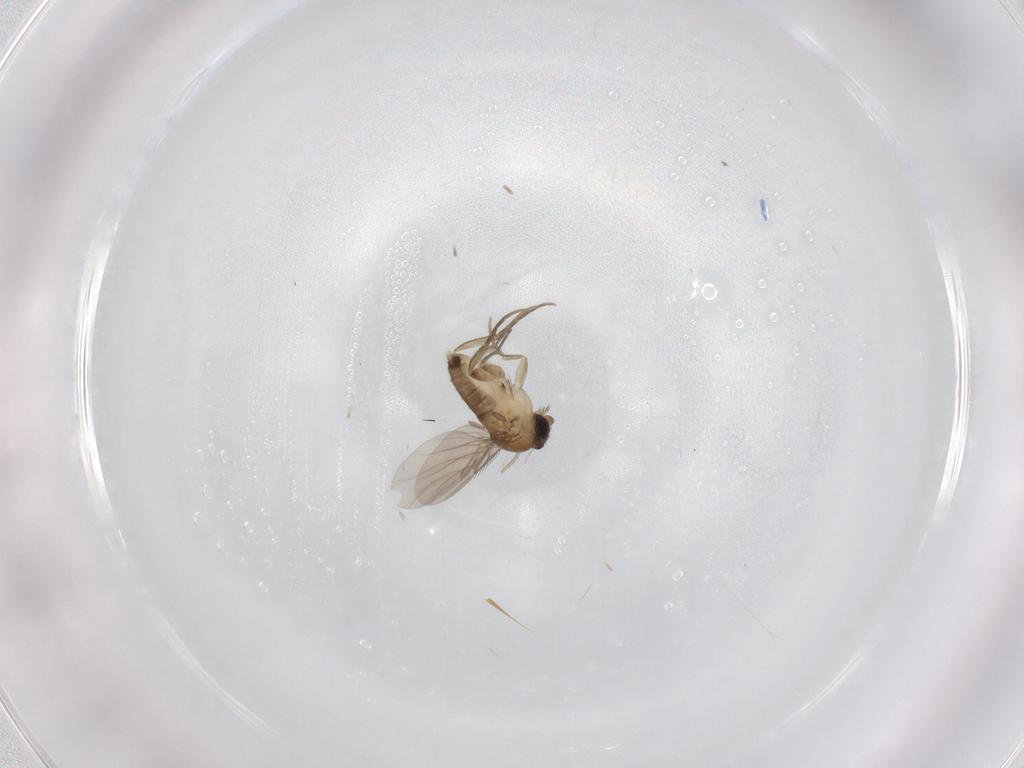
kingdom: Animalia
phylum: Arthropoda
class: Insecta
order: Diptera
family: Phoridae
